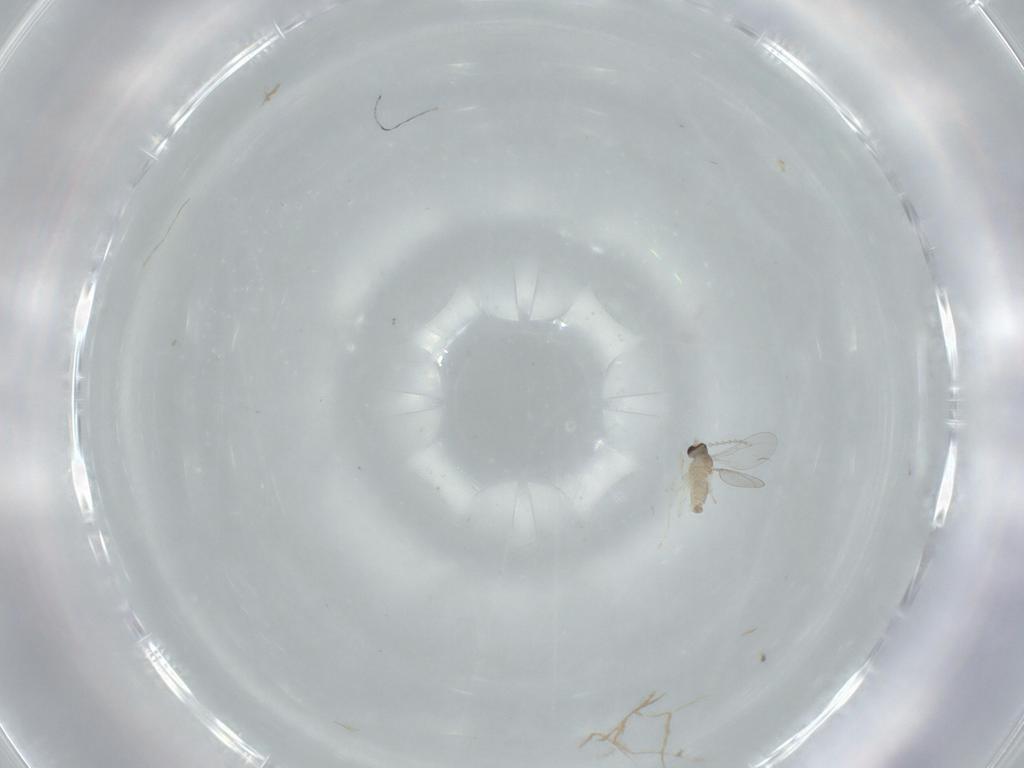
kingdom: Animalia
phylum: Arthropoda
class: Insecta
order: Diptera
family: Cecidomyiidae
